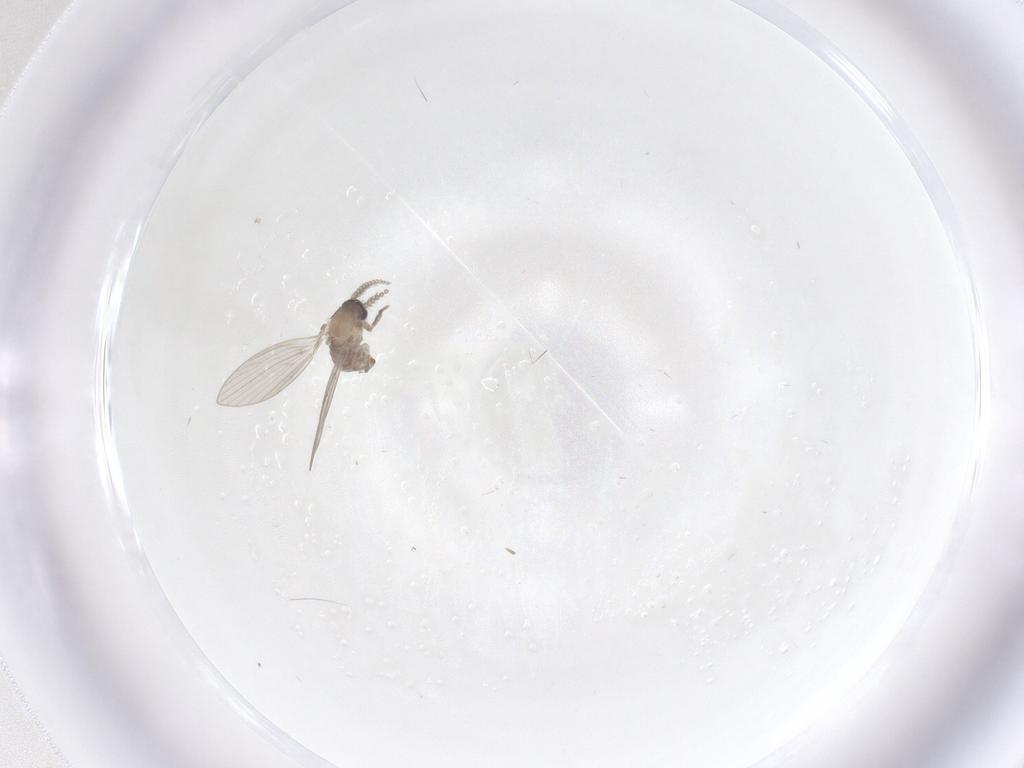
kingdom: Animalia
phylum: Arthropoda
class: Insecta
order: Diptera
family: Psychodidae
